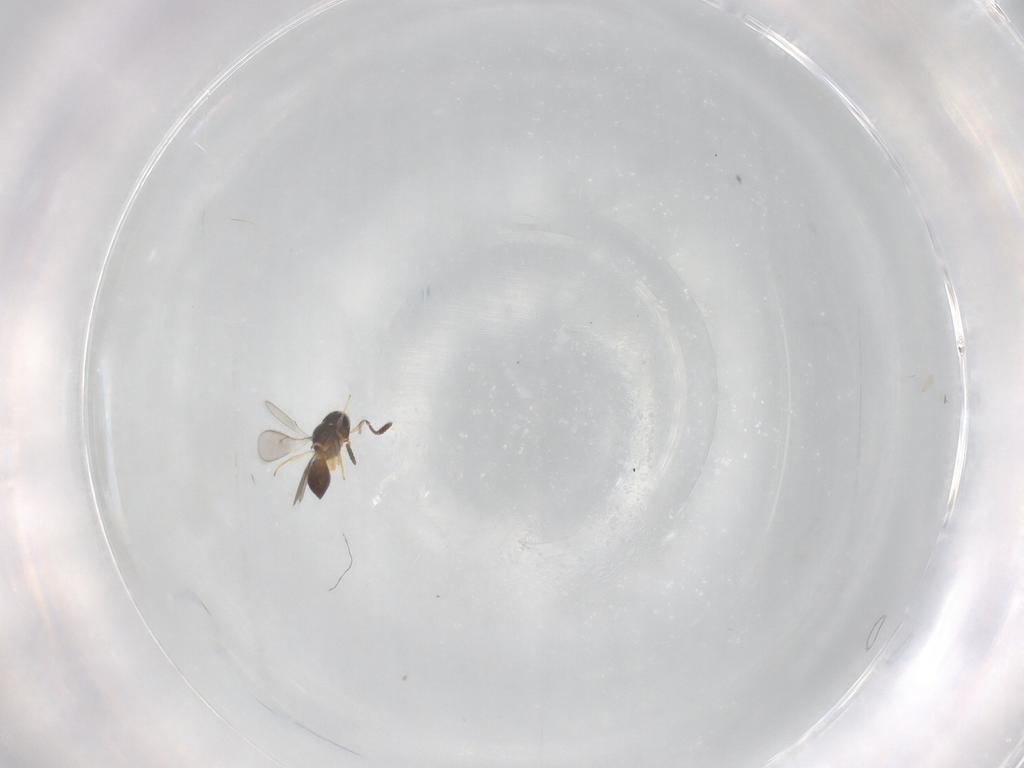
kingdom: Animalia
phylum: Arthropoda
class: Insecta
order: Hymenoptera
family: Scelionidae
